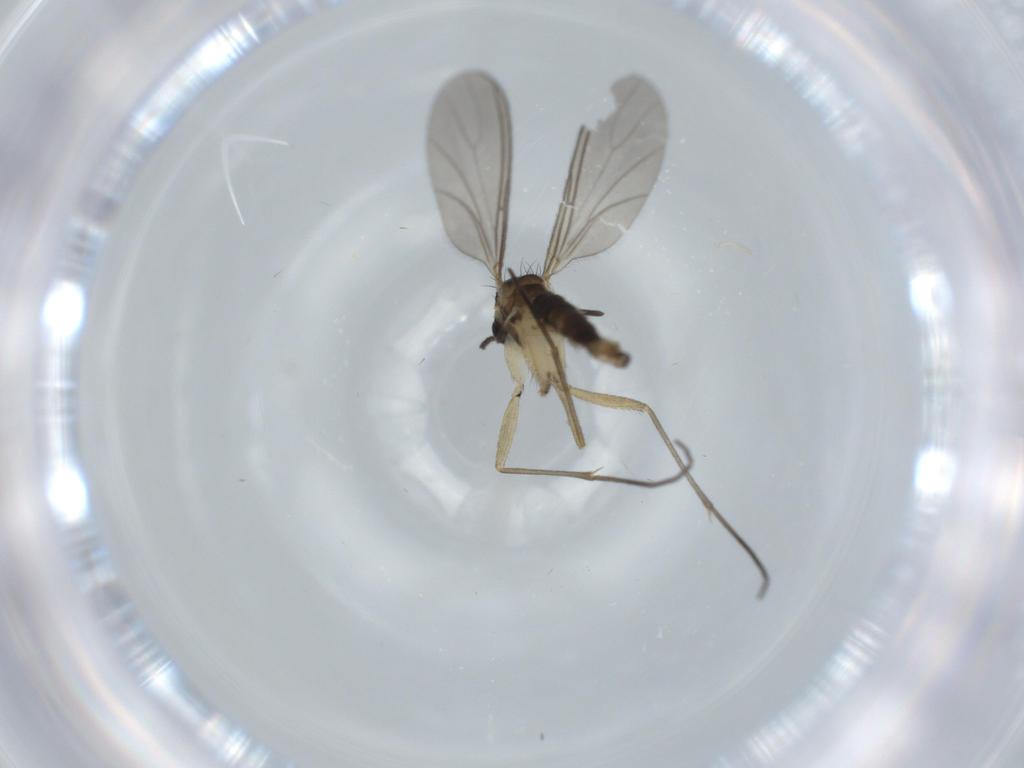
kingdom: Animalia
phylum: Arthropoda
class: Insecta
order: Diptera
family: Sciaridae
